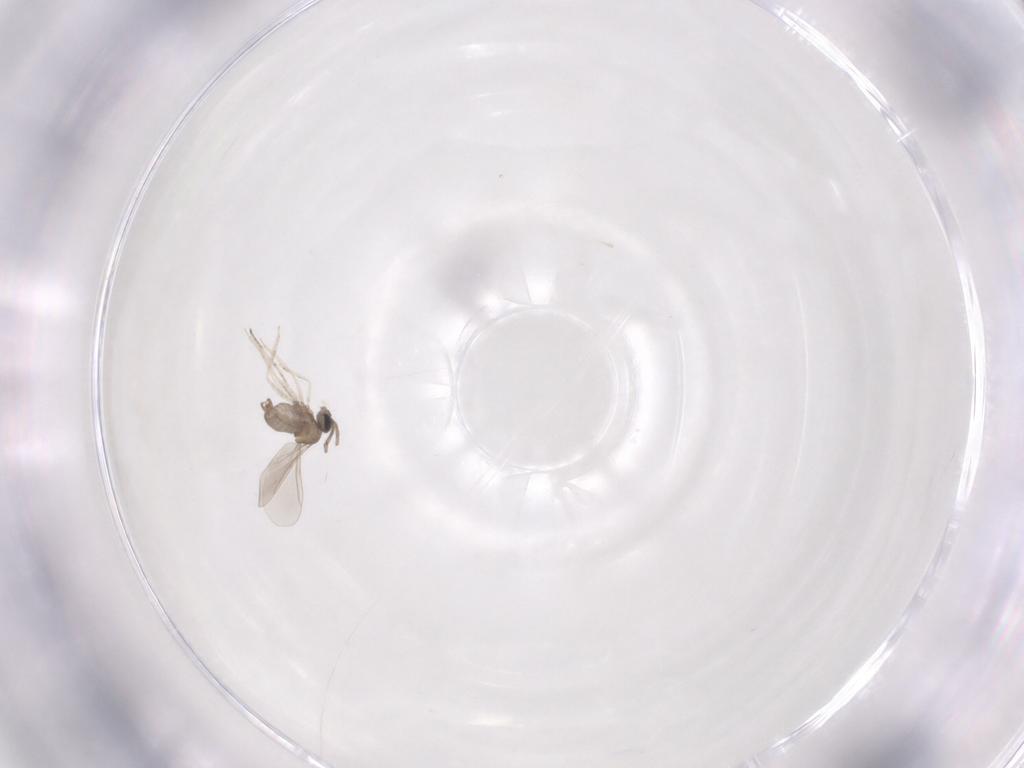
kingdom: Animalia
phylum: Arthropoda
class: Insecta
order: Diptera
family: Cecidomyiidae
